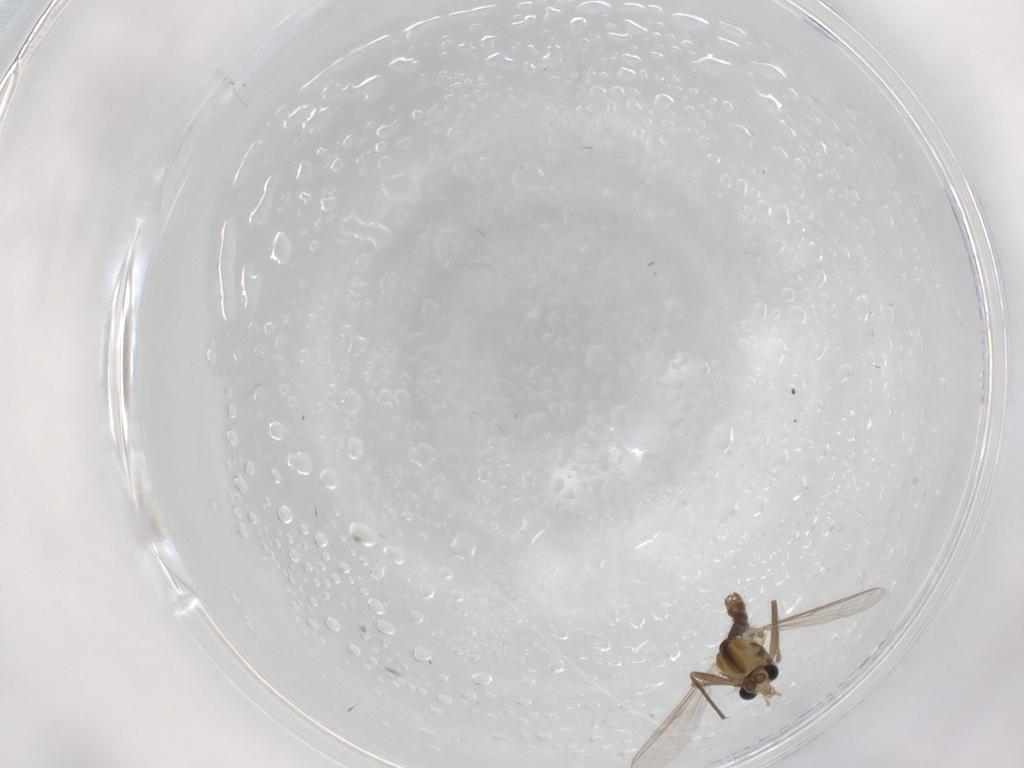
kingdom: Animalia
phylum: Arthropoda
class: Insecta
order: Diptera
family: Chironomidae
